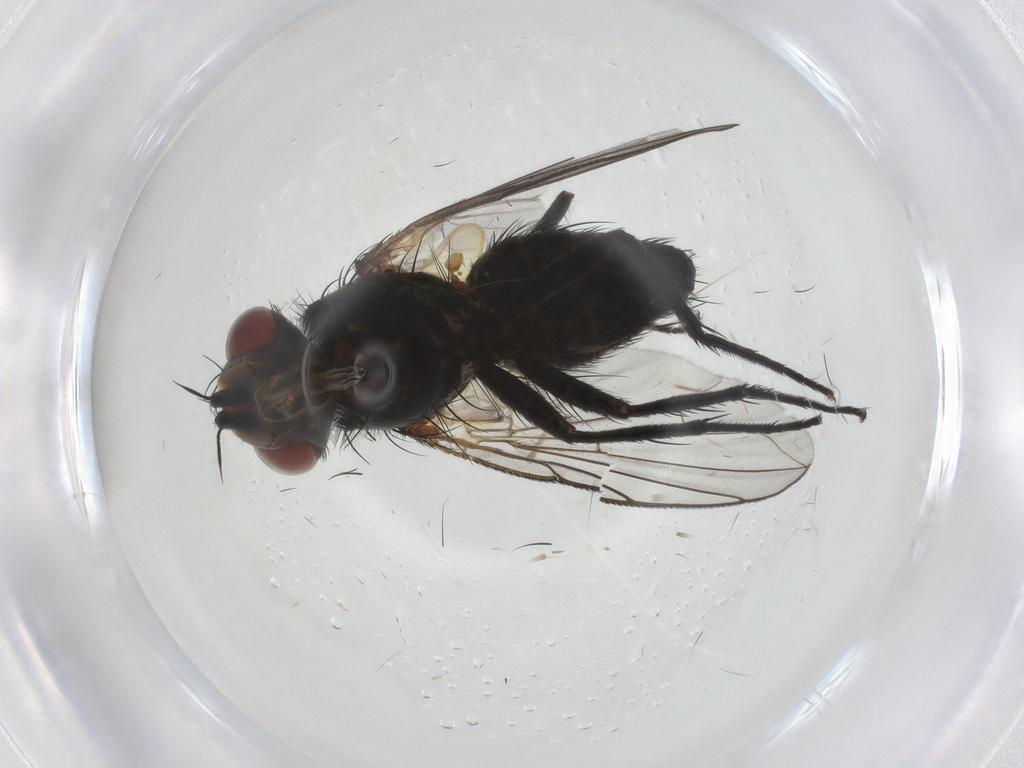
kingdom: Animalia
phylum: Arthropoda
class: Insecta
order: Diptera
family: Tachinidae
